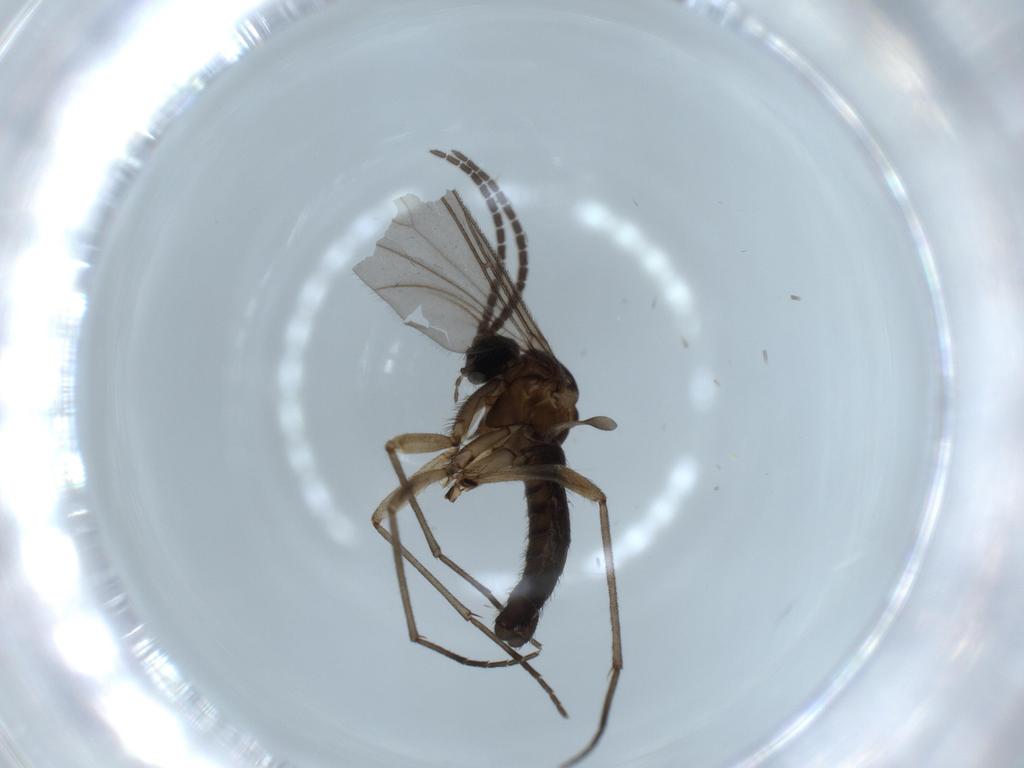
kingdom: Animalia
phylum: Arthropoda
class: Insecta
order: Diptera
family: Sciaridae
